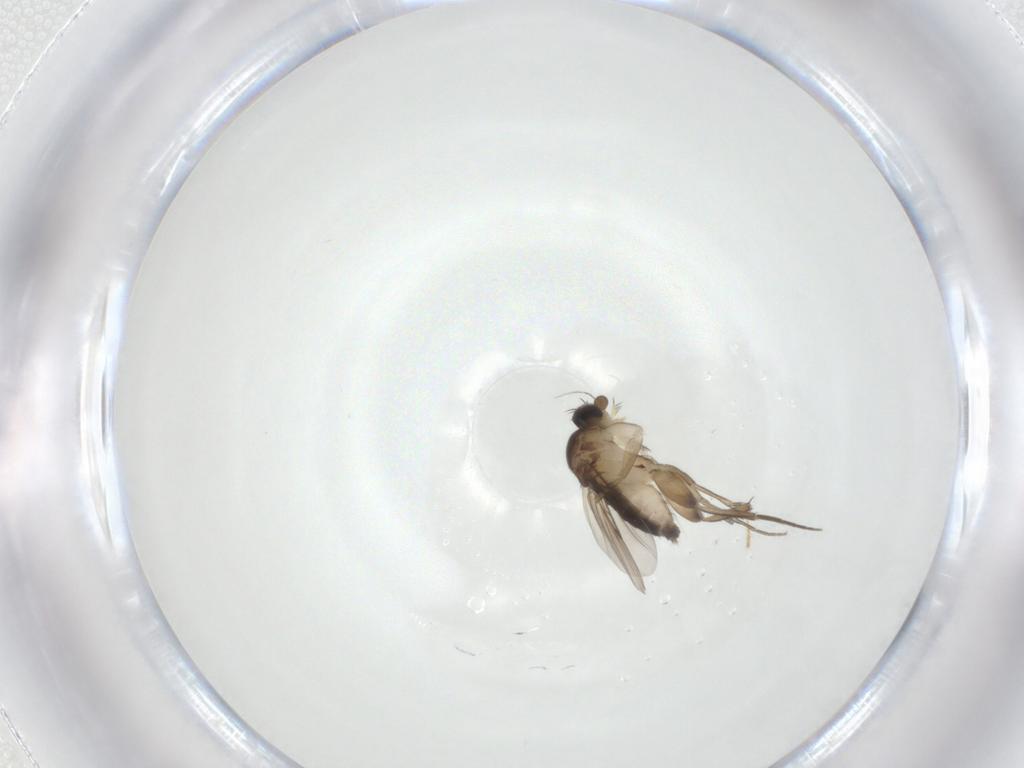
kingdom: Animalia
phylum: Arthropoda
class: Insecta
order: Diptera
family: Phoridae
